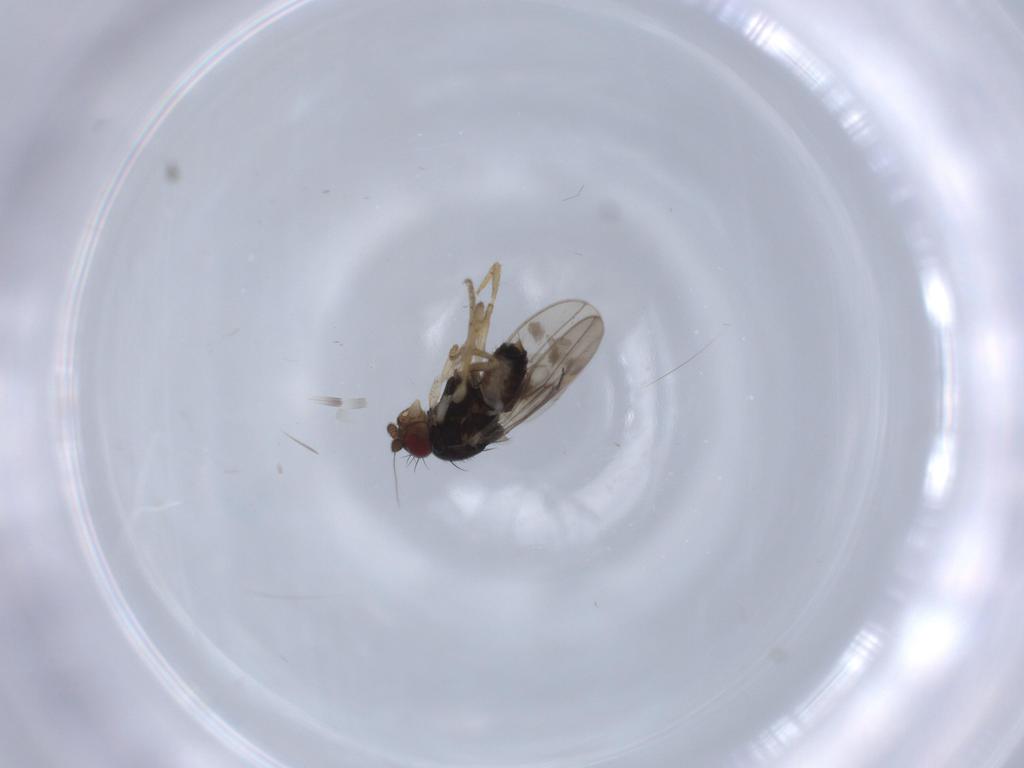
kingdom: Animalia
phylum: Arthropoda
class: Insecta
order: Diptera
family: Sphaeroceridae
